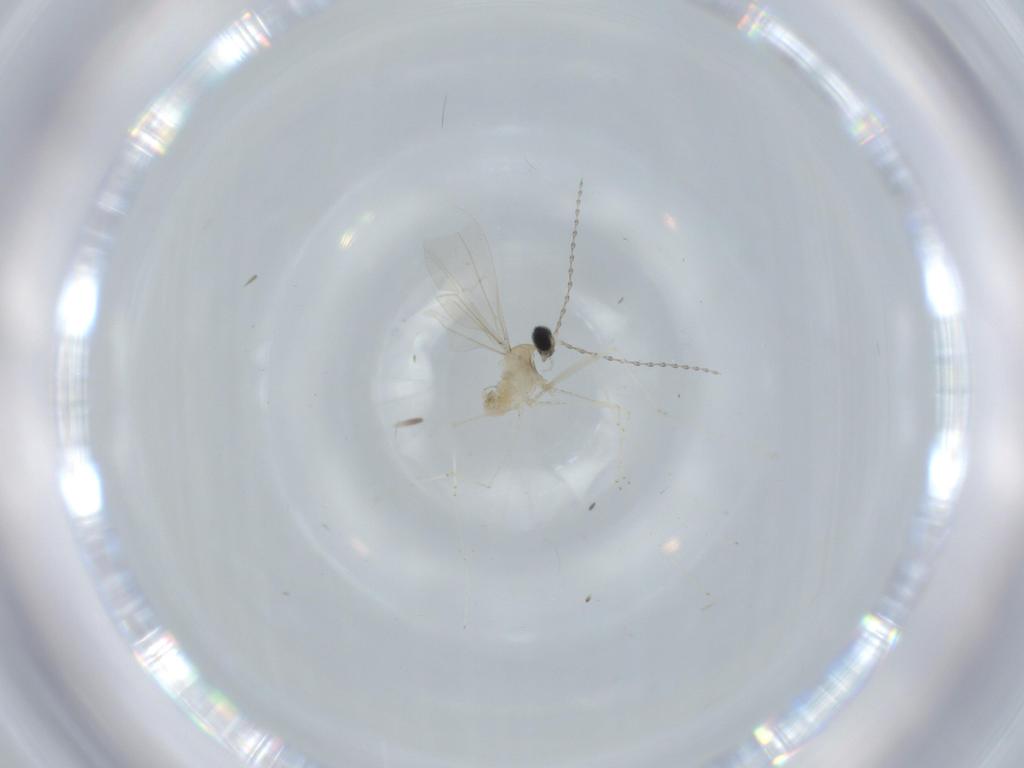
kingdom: Animalia
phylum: Arthropoda
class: Insecta
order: Diptera
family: Cecidomyiidae
